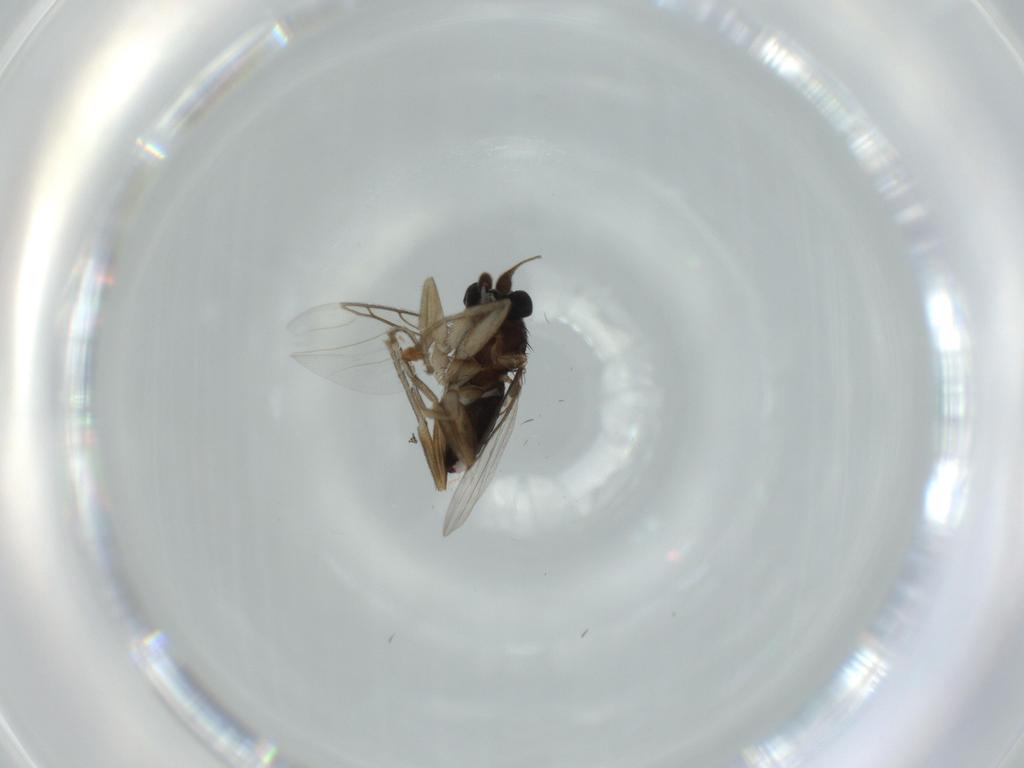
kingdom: Animalia
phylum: Arthropoda
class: Insecta
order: Diptera
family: Phoridae
